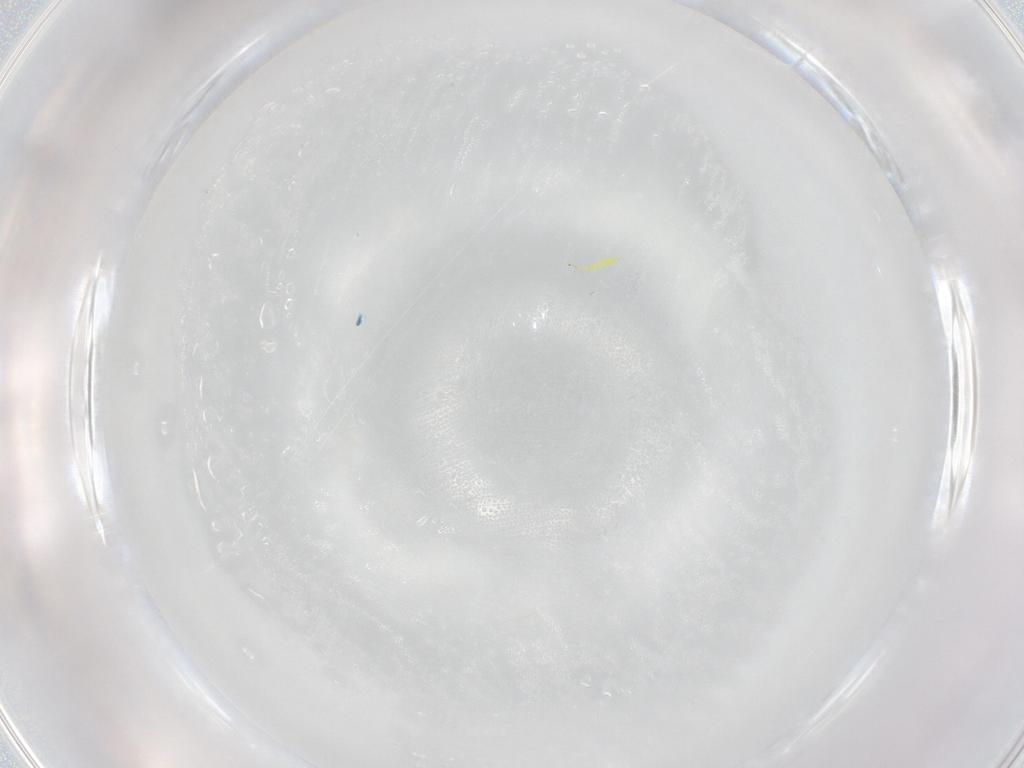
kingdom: Animalia
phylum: Arthropoda
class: Insecta
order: Psocodea
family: Lepidopsocidae
